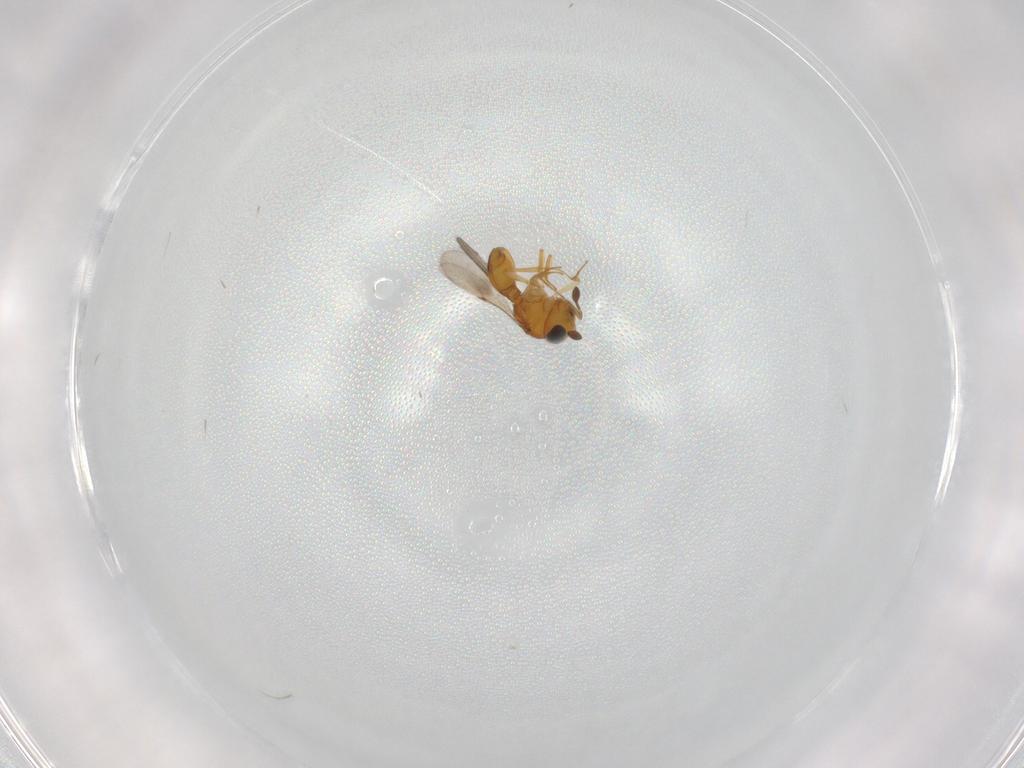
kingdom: Animalia
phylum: Arthropoda
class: Insecta
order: Hymenoptera
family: Scelionidae
